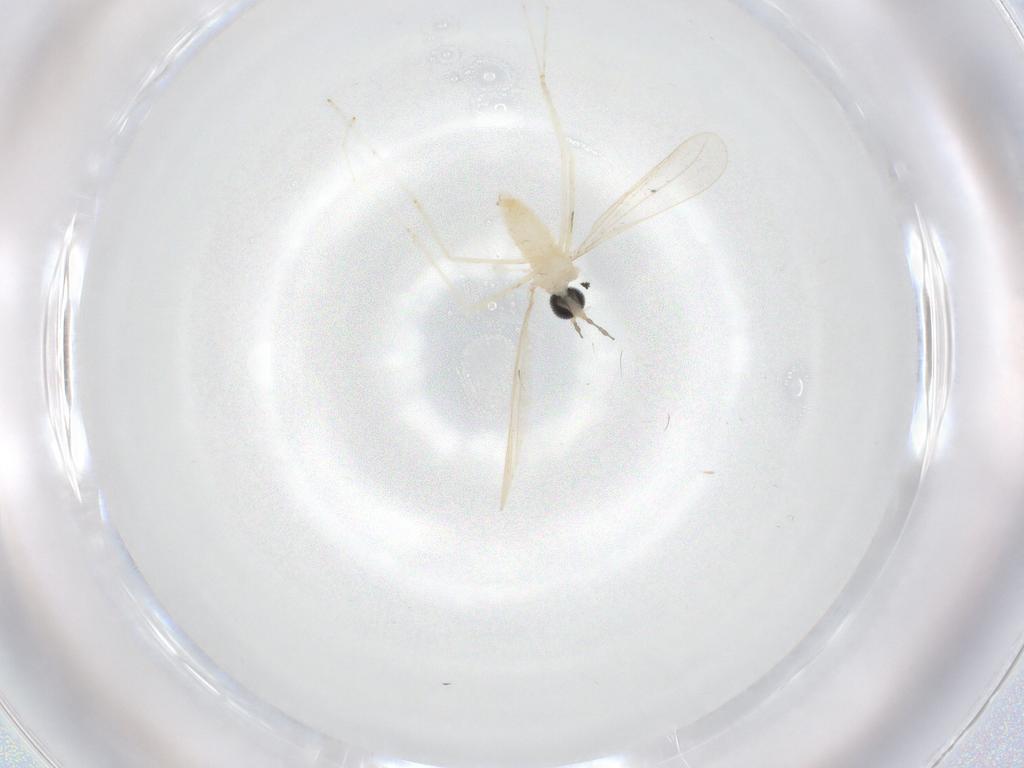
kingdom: Animalia
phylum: Arthropoda
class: Insecta
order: Diptera
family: Cecidomyiidae
